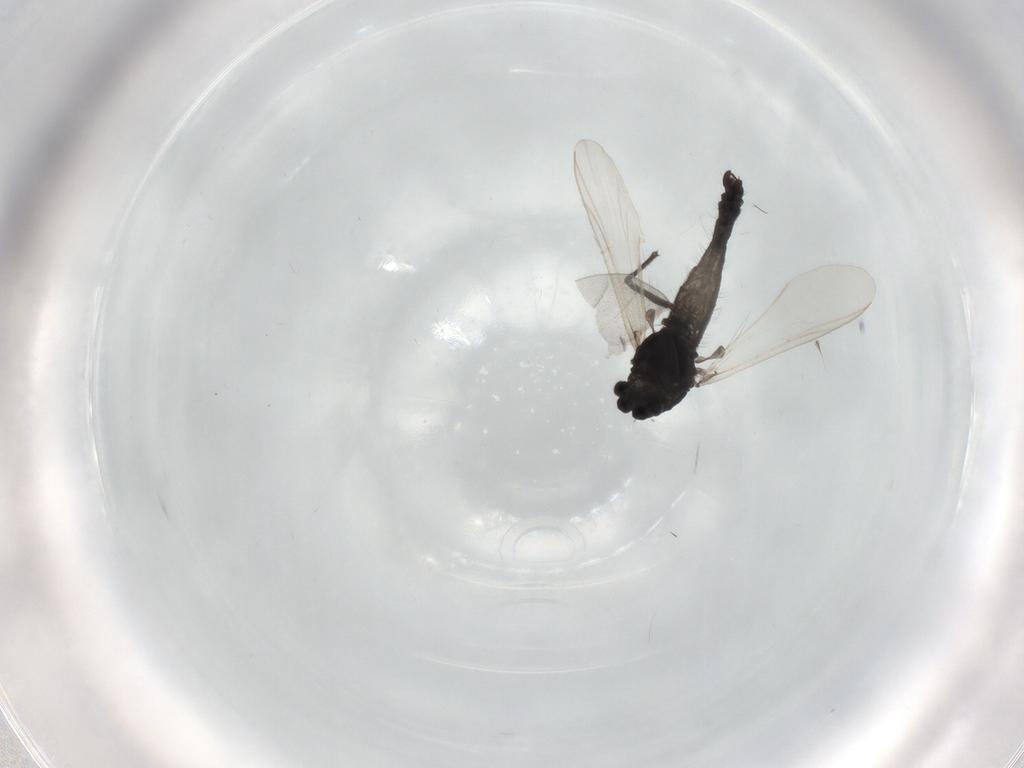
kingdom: Animalia
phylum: Arthropoda
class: Insecta
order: Diptera
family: Chironomidae
